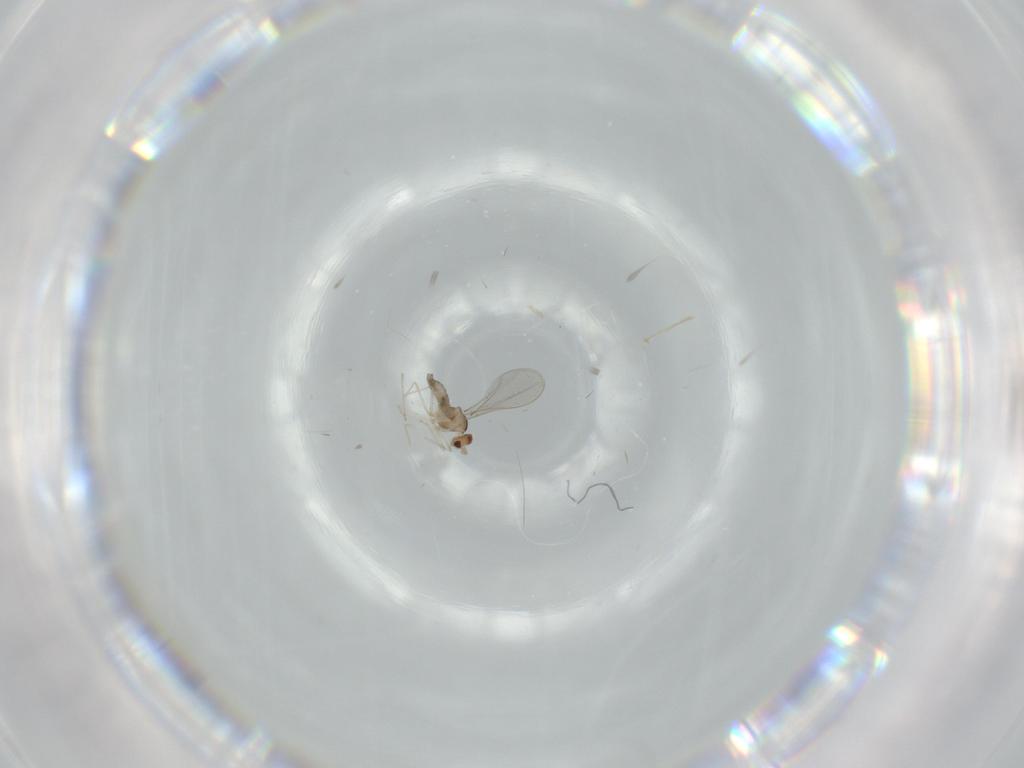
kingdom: Animalia
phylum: Arthropoda
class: Insecta
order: Diptera
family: Cecidomyiidae
